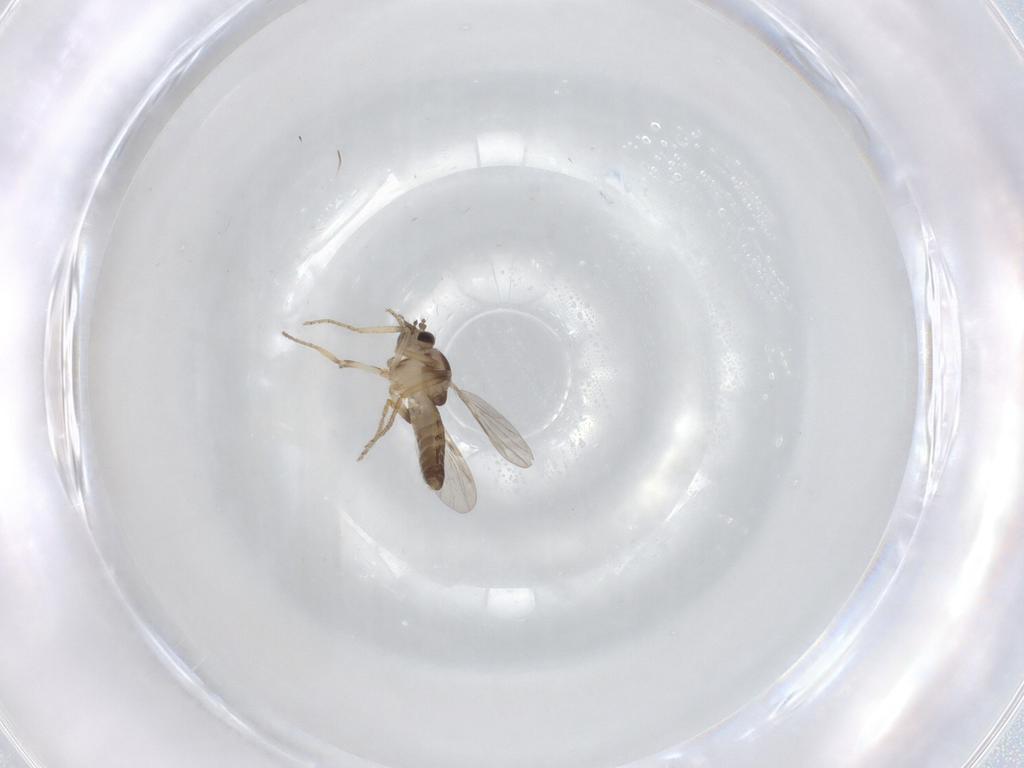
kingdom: Animalia
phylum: Arthropoda
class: Insecta
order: Diptera
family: Ceratopogonidae
